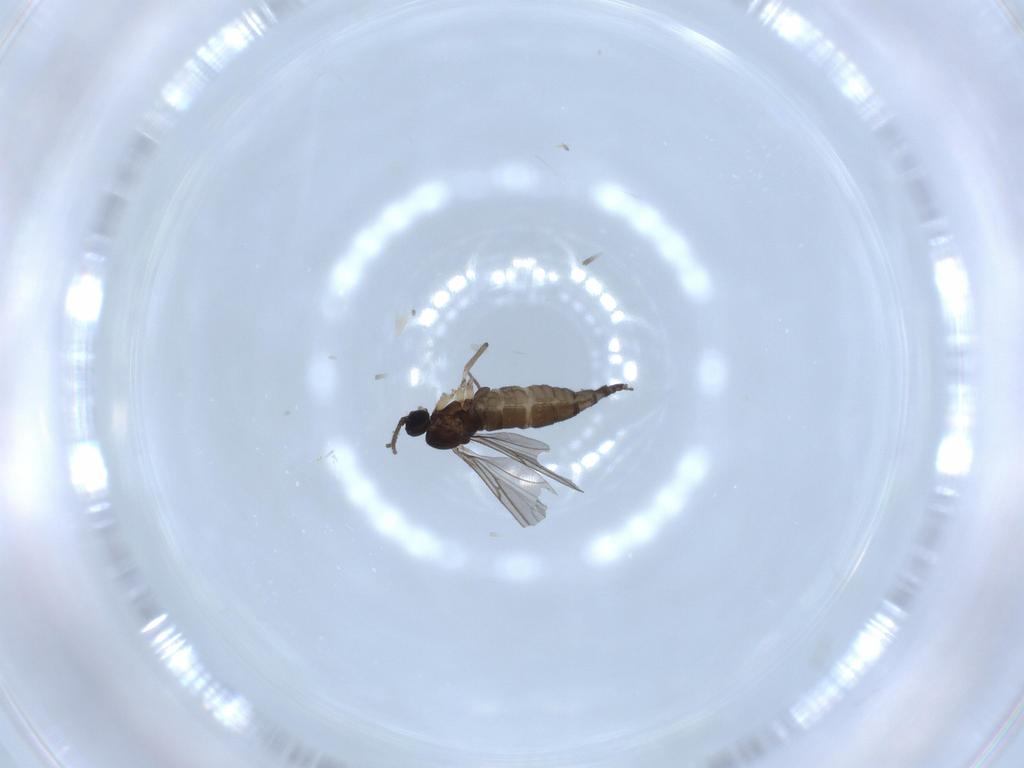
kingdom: Animalia
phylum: Arthropoda
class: Insecta
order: Diptera
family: Sciaridae
